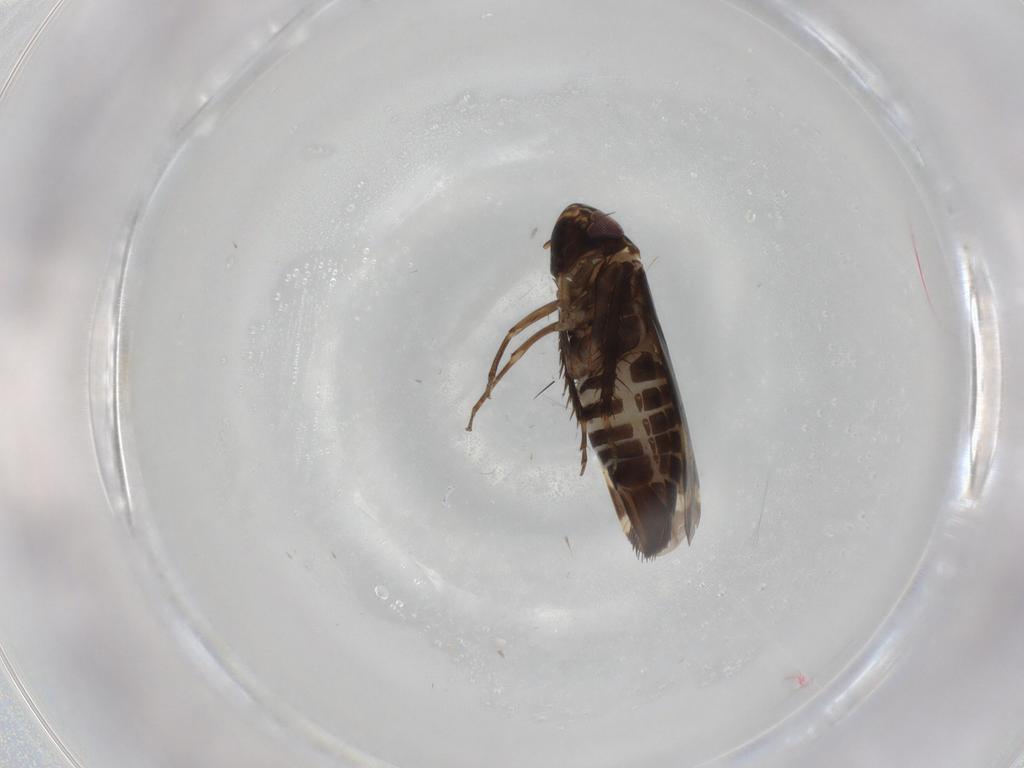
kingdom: Animalia
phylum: Arthropoda
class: Insecta
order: Hemiptera
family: Cicadellidae
